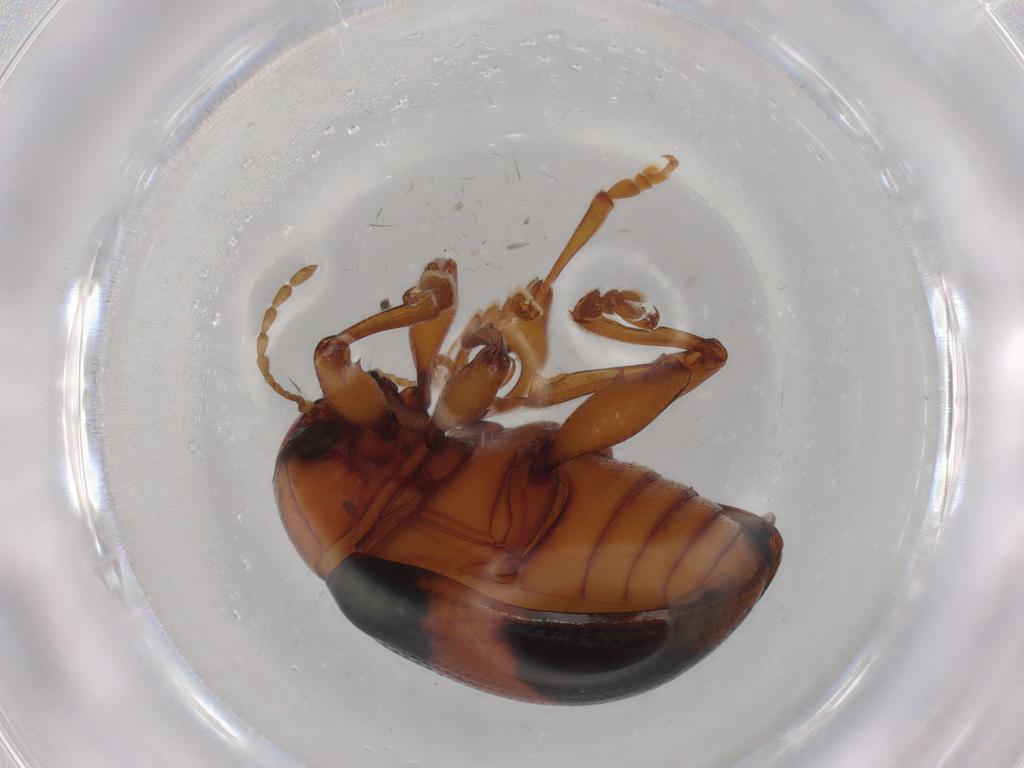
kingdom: Animalia
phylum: Arthropoda
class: Insecta
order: Coleoptera
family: Chrysomelidae
